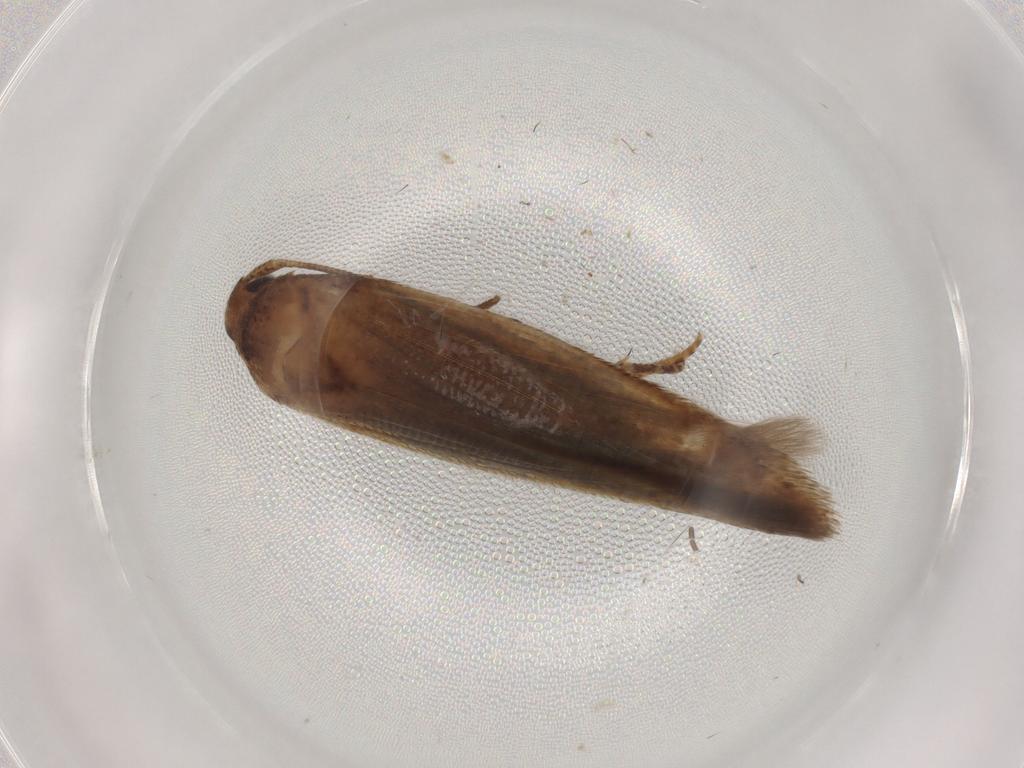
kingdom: Animalia
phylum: Arthropoda
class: Insecta
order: Lepidoptera
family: Cosmopterigidae
